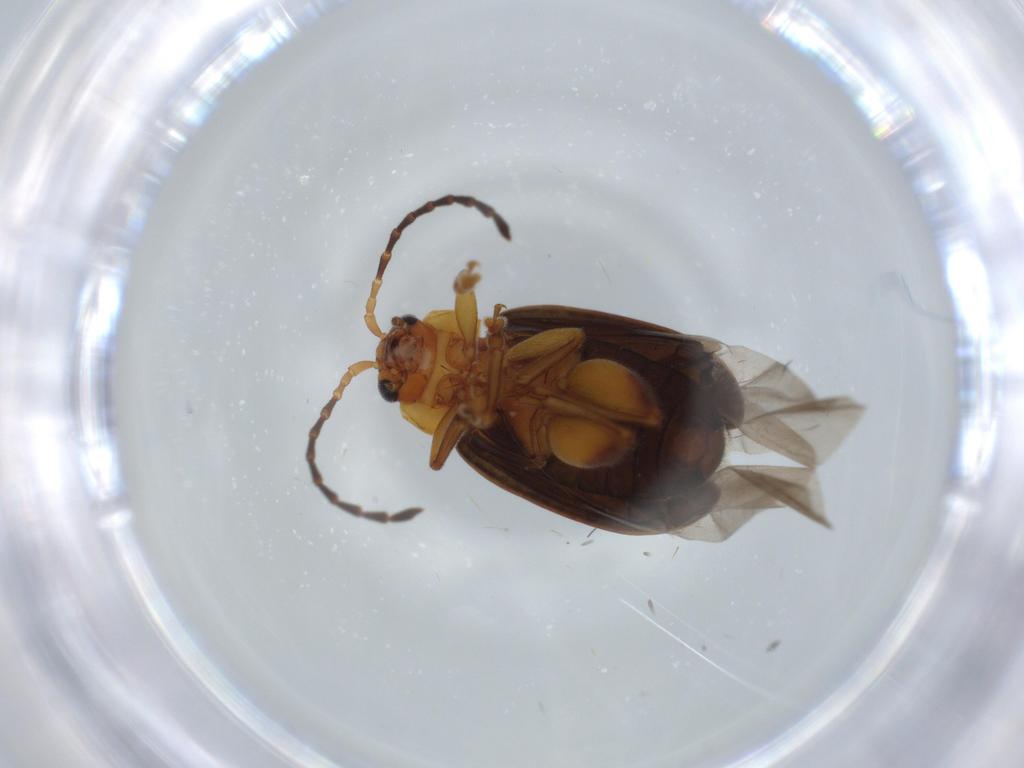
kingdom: Animalia
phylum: Arthropoda
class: Insecta
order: Coleoptera
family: Chrysomelidae
